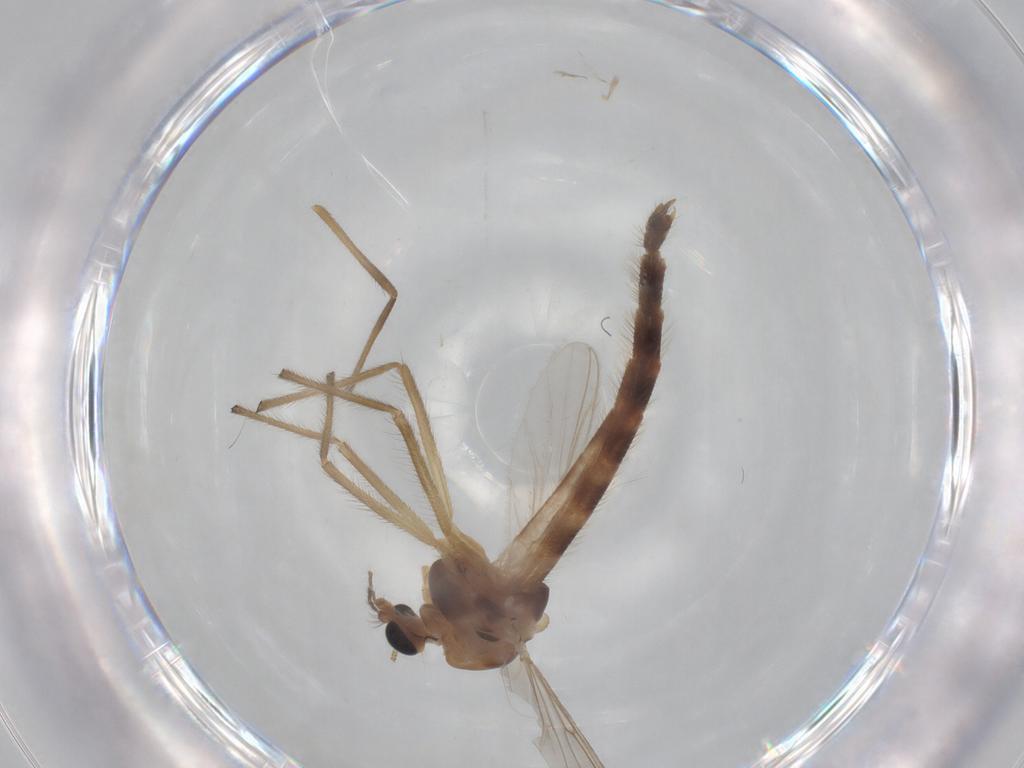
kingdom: Animalia
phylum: Arthropoda
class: Insecta
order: Diptera
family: Chironomidae
